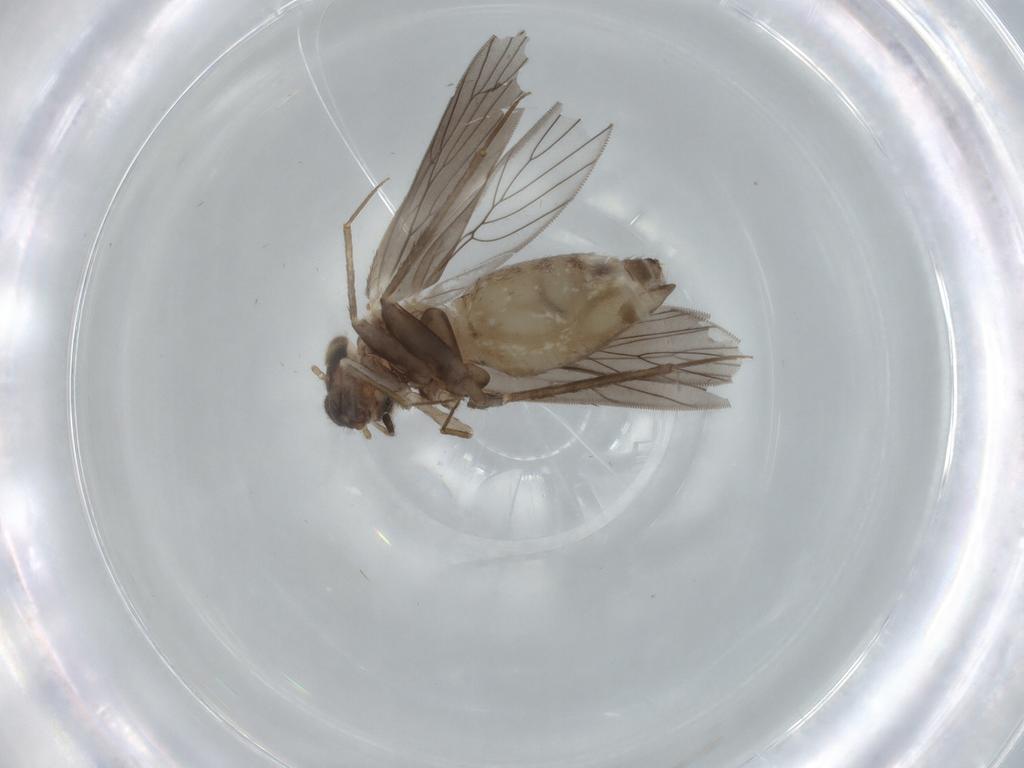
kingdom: Animalia
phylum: Arthropoda
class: Insecta
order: Psocodea
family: Lepidopsocidae
